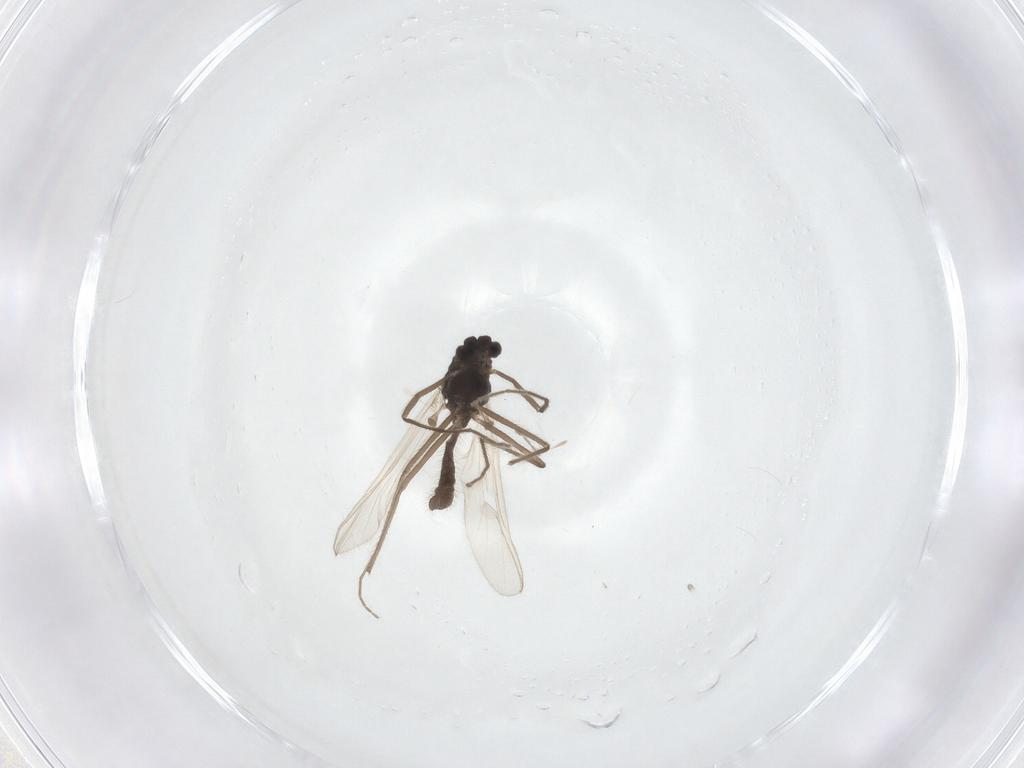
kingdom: Animalia
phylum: Arthropoda
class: Insecta
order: Diptera
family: Chironomidae
